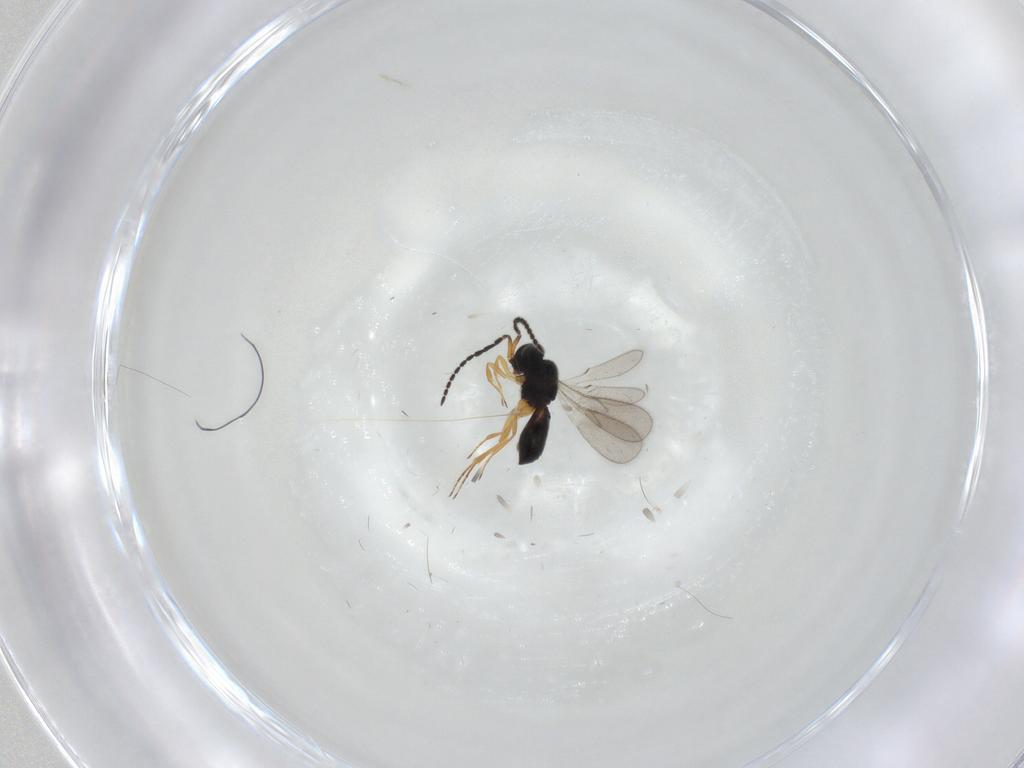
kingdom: Animalia
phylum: Arthropoda
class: Insecta
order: Hymenoptera
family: Scelionidae
